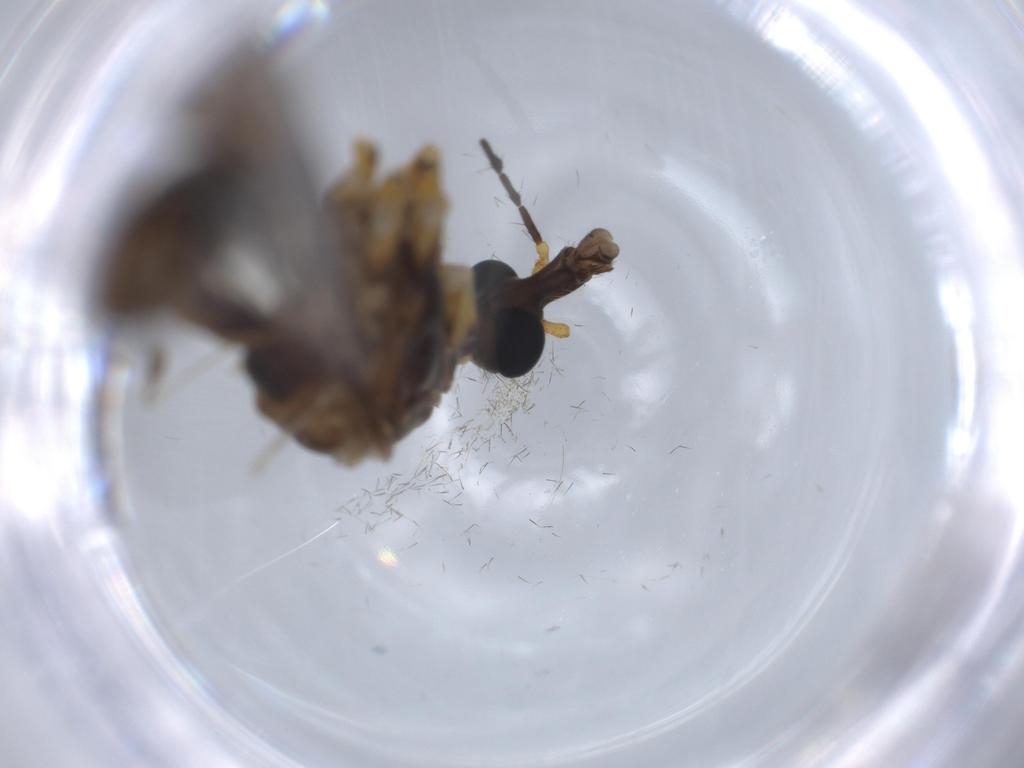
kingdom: Animalia
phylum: Arthropoda
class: Insecta
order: Diptera
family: Chironomidae
